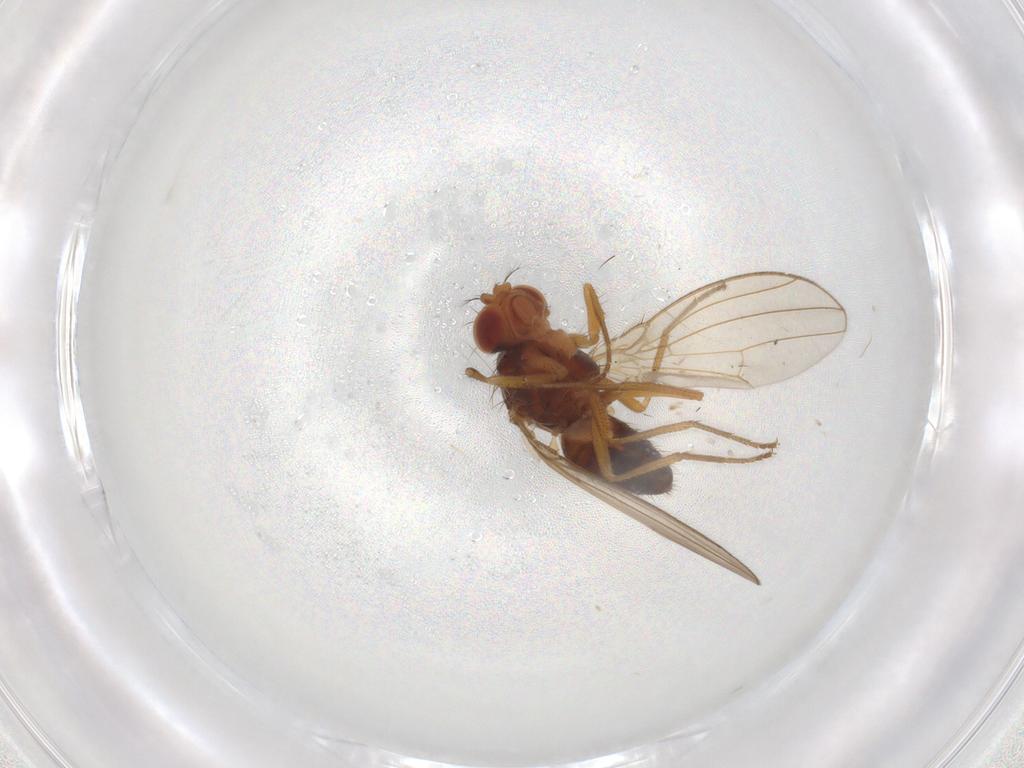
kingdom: Animalia
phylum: Arthropoda
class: Insecta
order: Diptera
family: Drosophilidae
